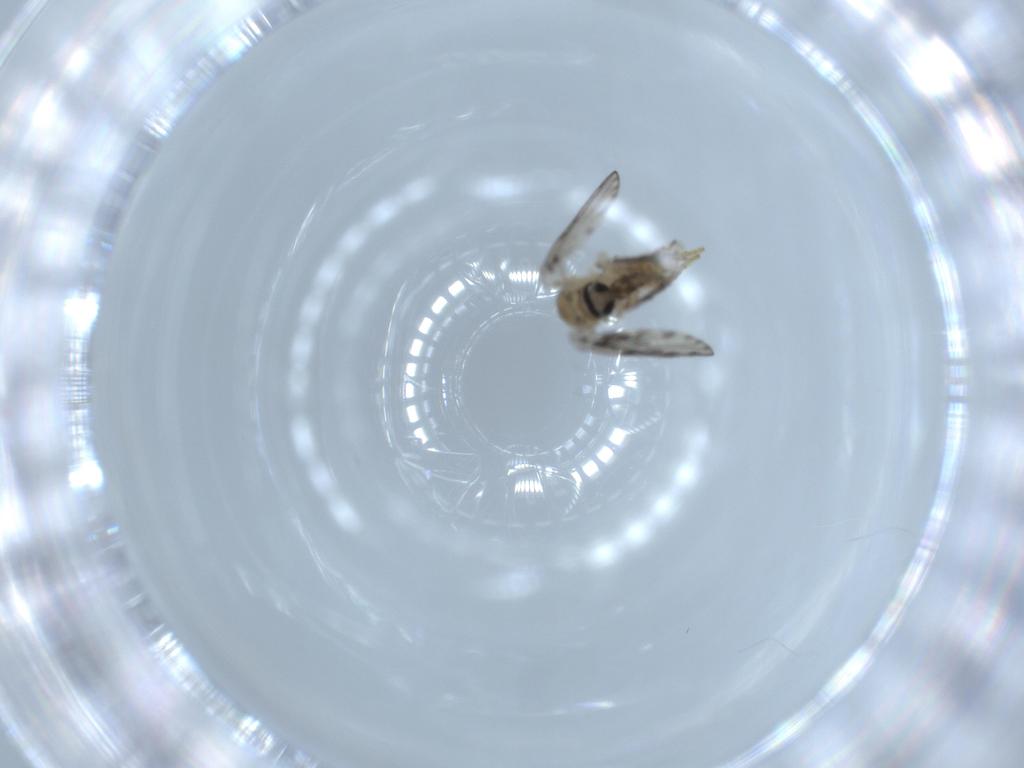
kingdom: Animalia
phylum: Arthropoda
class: Insecta
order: Diptera
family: Psychodidae
